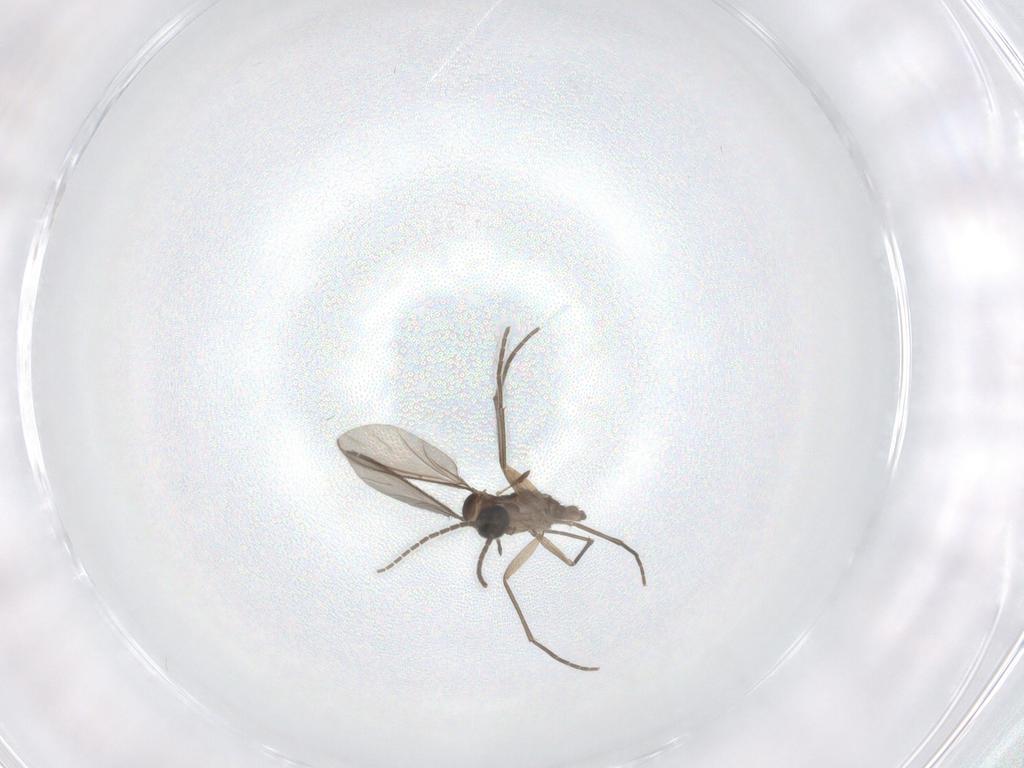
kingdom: Animalia
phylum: Arthropoda
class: Insecta
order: Diptera
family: Sciaridae
